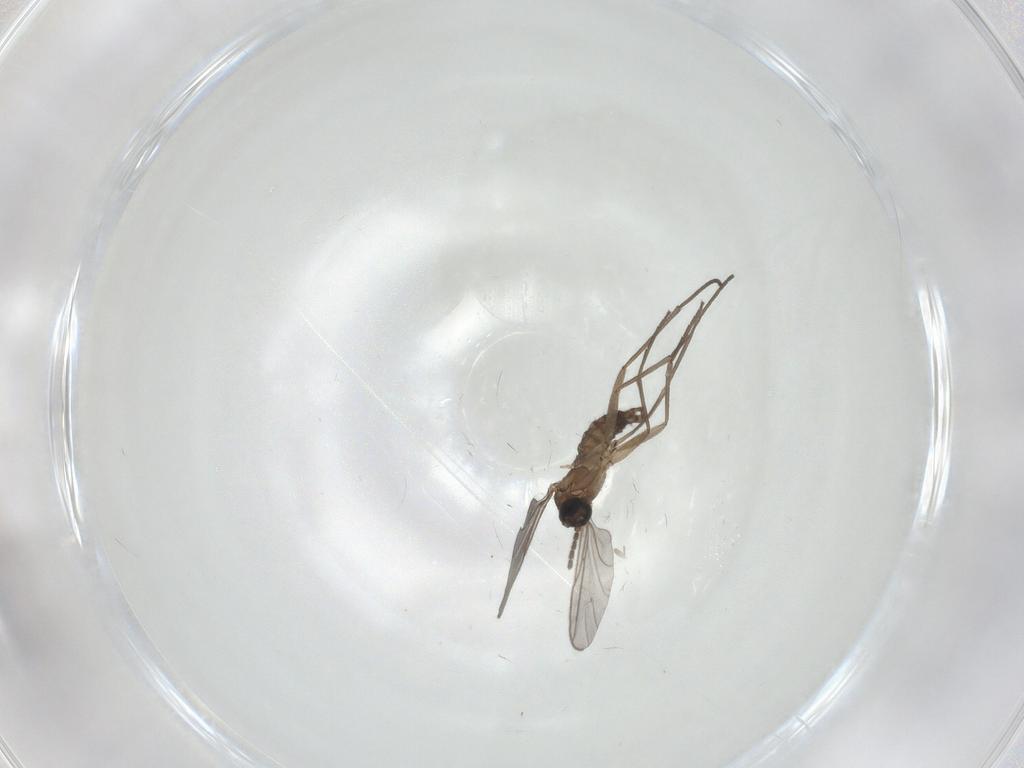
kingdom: Animalia
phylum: Arthropoda
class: Insecta
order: Diptera
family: Sciaridae
